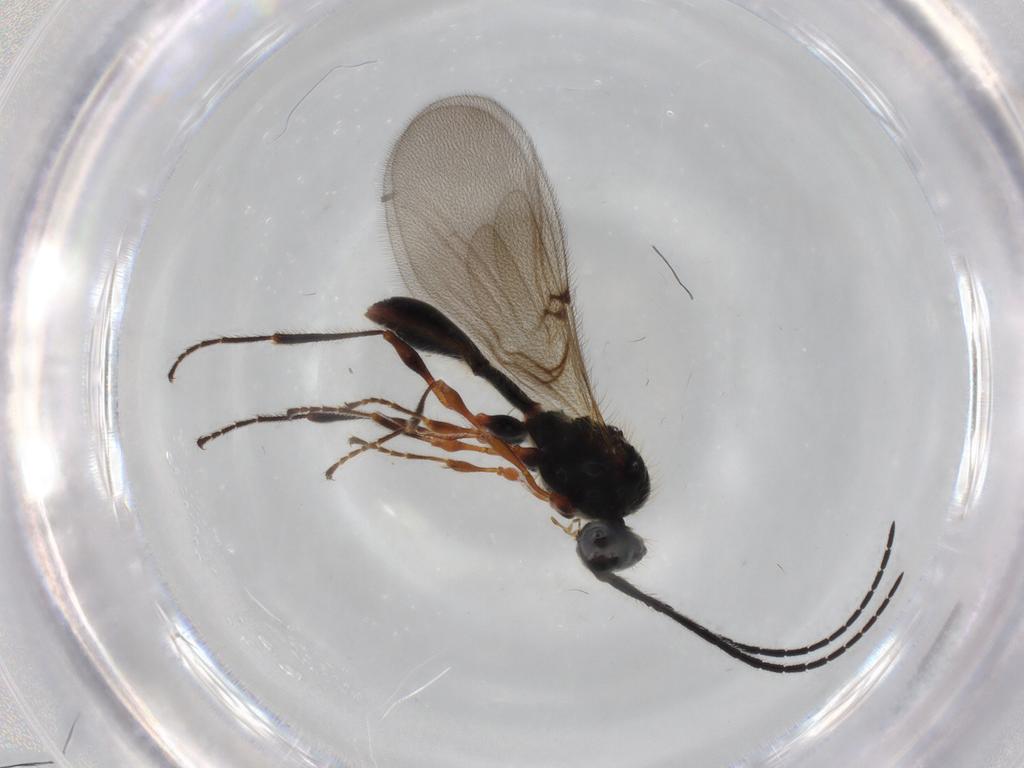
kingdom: Animalia
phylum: Arthropoda
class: Insecta
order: Hymenoptera
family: Diapriidae
